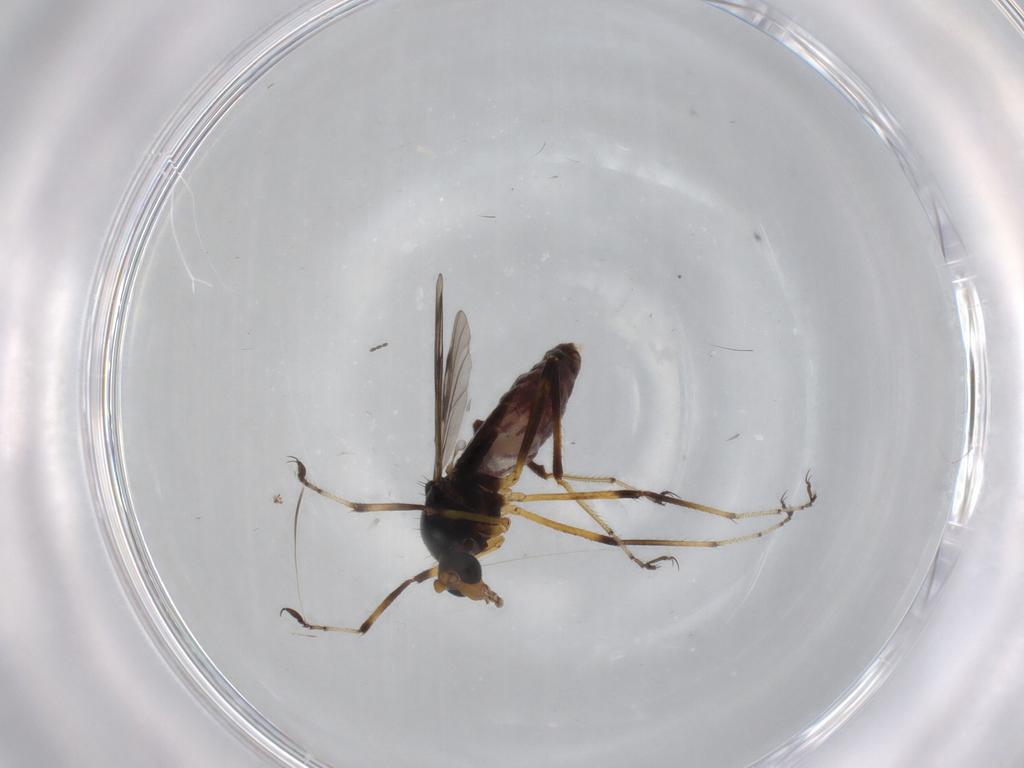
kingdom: Animalia
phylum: Arthropoda
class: Insecta
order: Diptera
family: Ceratopogonidae
